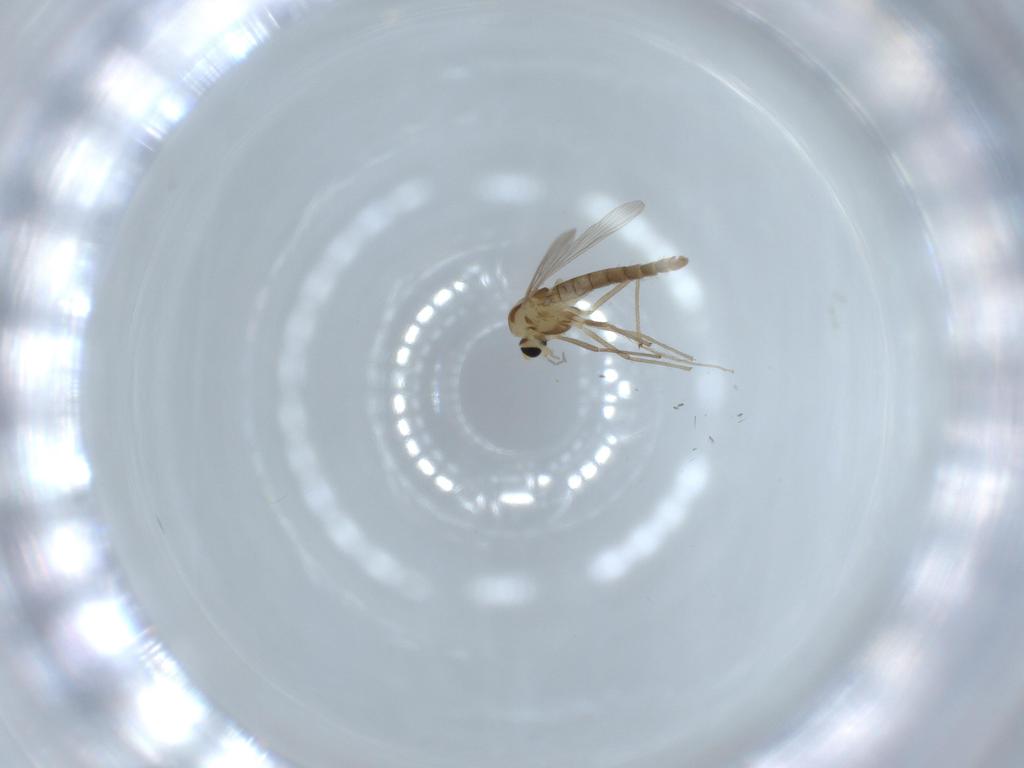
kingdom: Animalia
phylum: Arthropoda
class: Insecta
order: Diptera
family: Chironomidae
